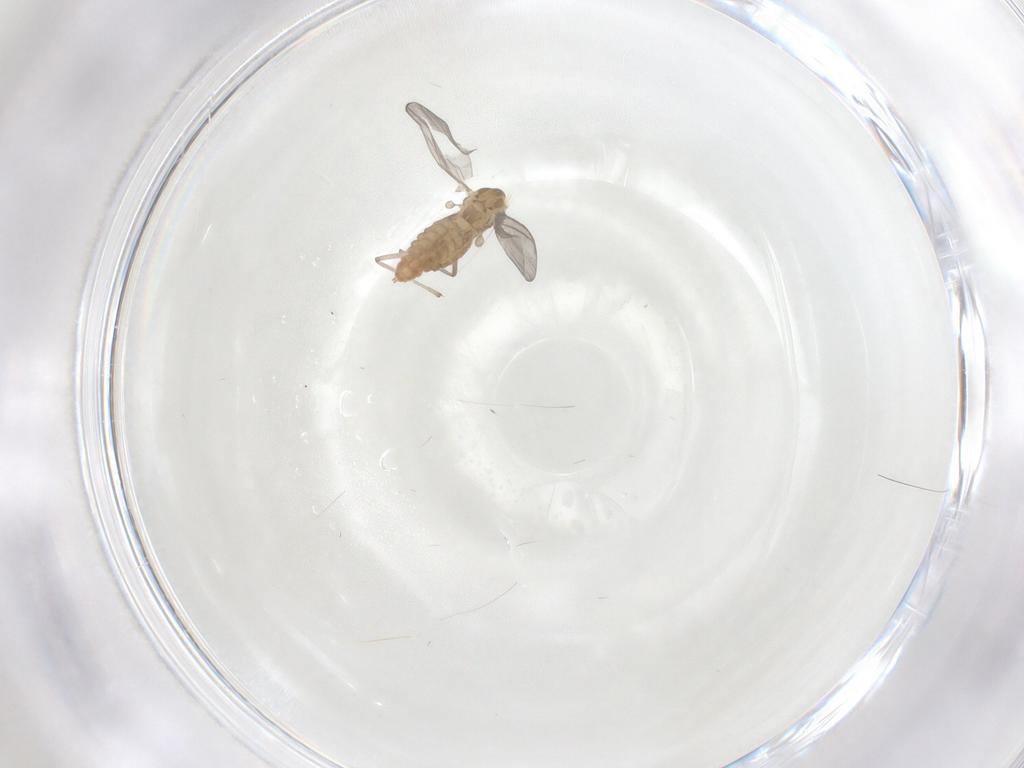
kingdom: Animalia
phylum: Arthropoda
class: Insecta
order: Diptera
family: Chironomidae
